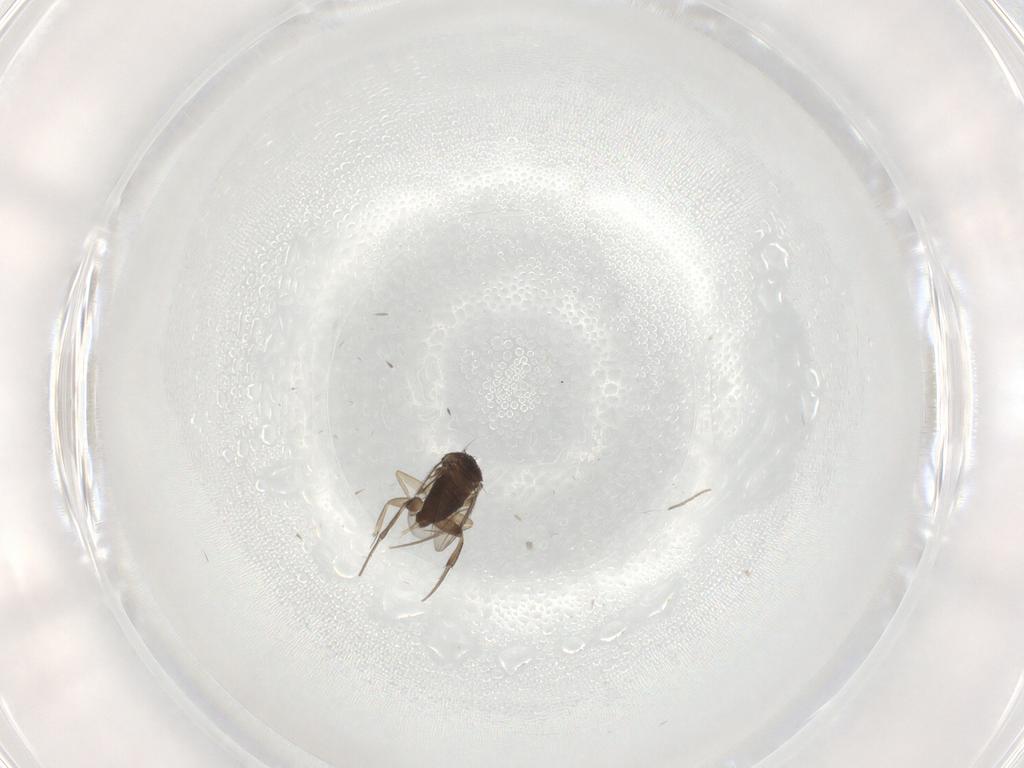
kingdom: Animalia
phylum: Arthropoda
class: Insecta
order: Diptera
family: Phoridae
